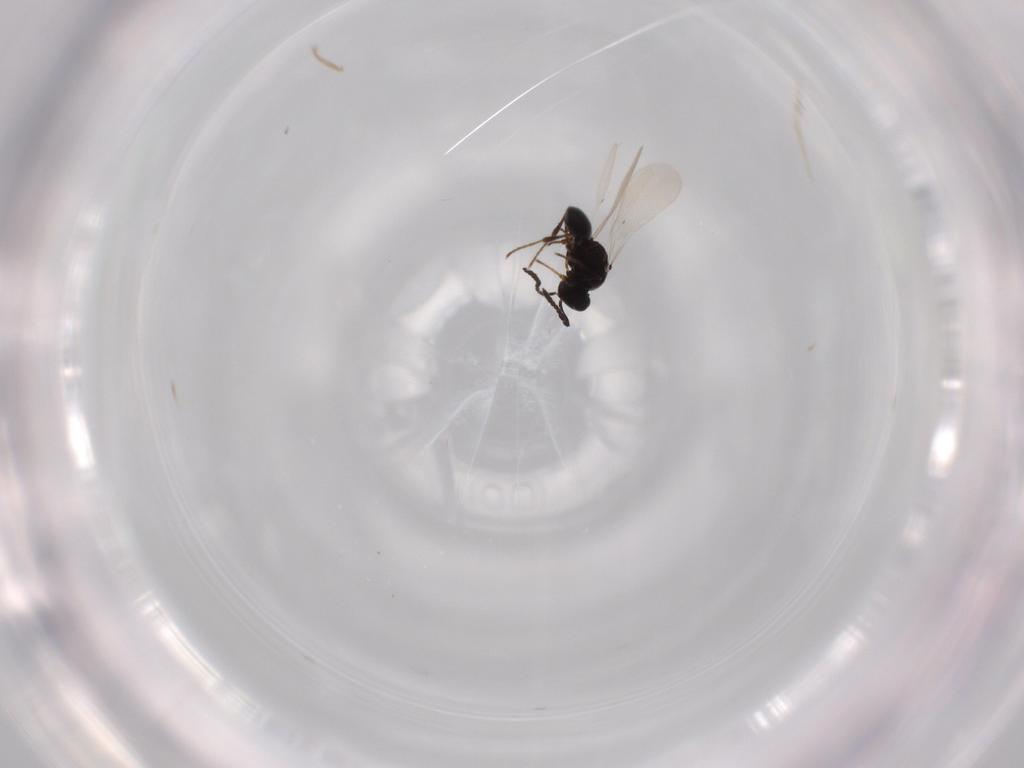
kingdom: Animalia
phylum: Arthropoda
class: Insecta
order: Hymenoptera
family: Platygastridae
